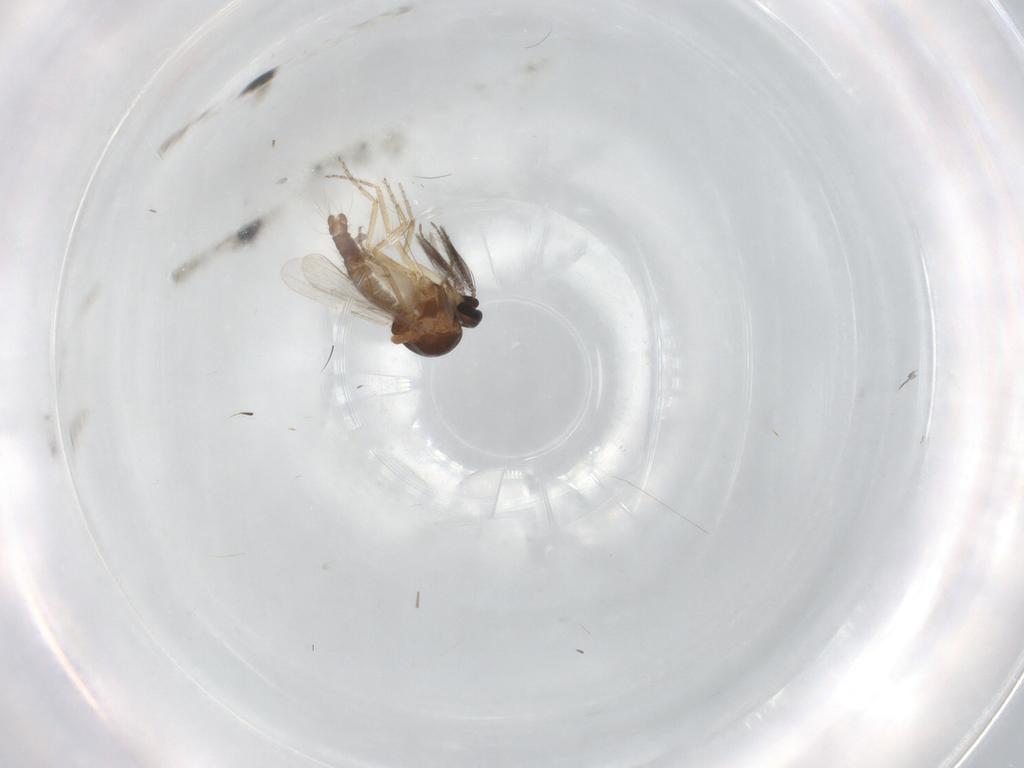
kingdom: Animalia
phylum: Arthropoda
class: Insecta
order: Diptera
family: Ceratopogonidae
